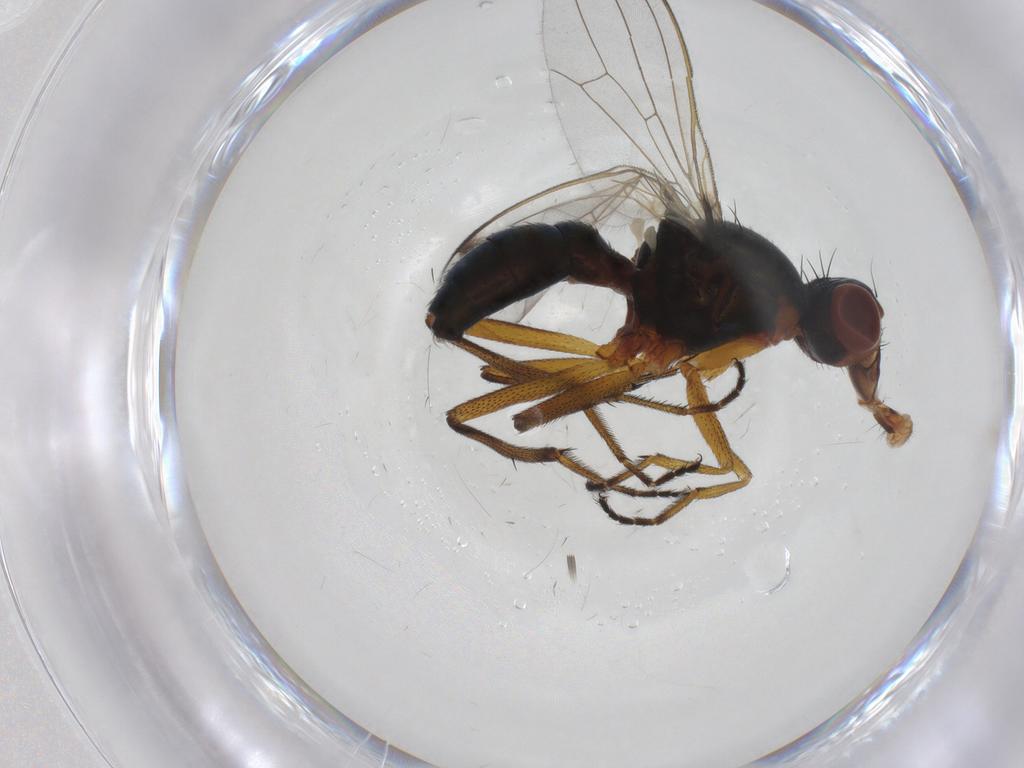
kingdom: Animalia
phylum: Arthropoda
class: Insecta
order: Diptera
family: Sepsidae
